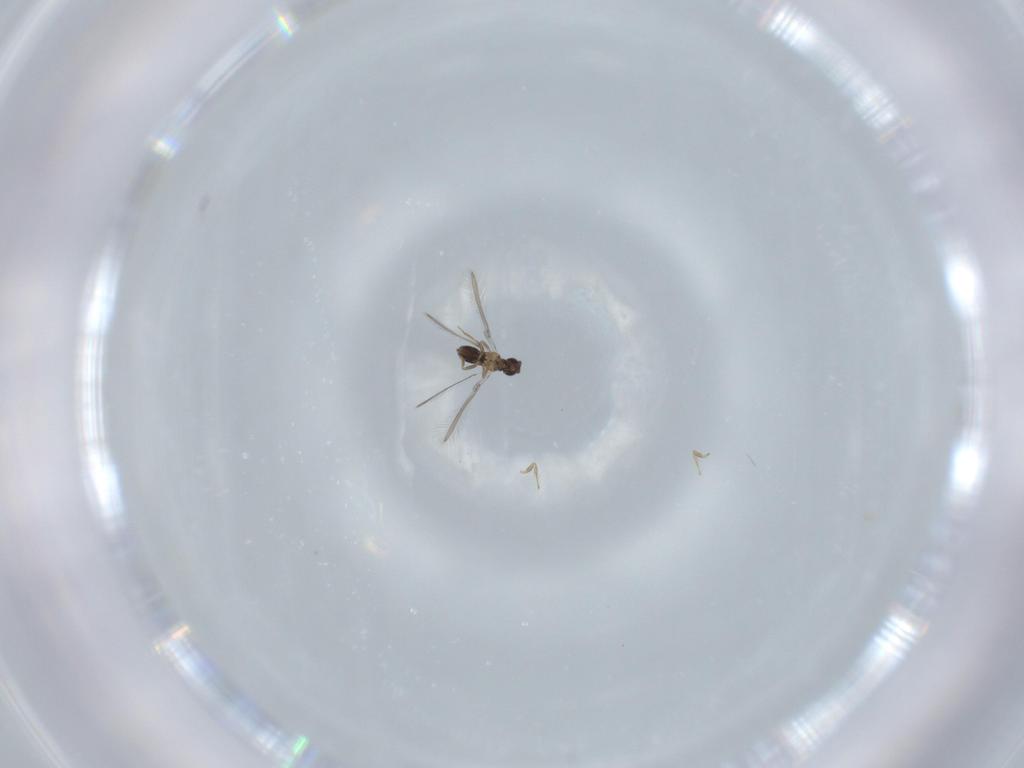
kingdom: Animalia
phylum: Arthropoda
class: Insecta
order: Hymenoptera
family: Mymaridae
